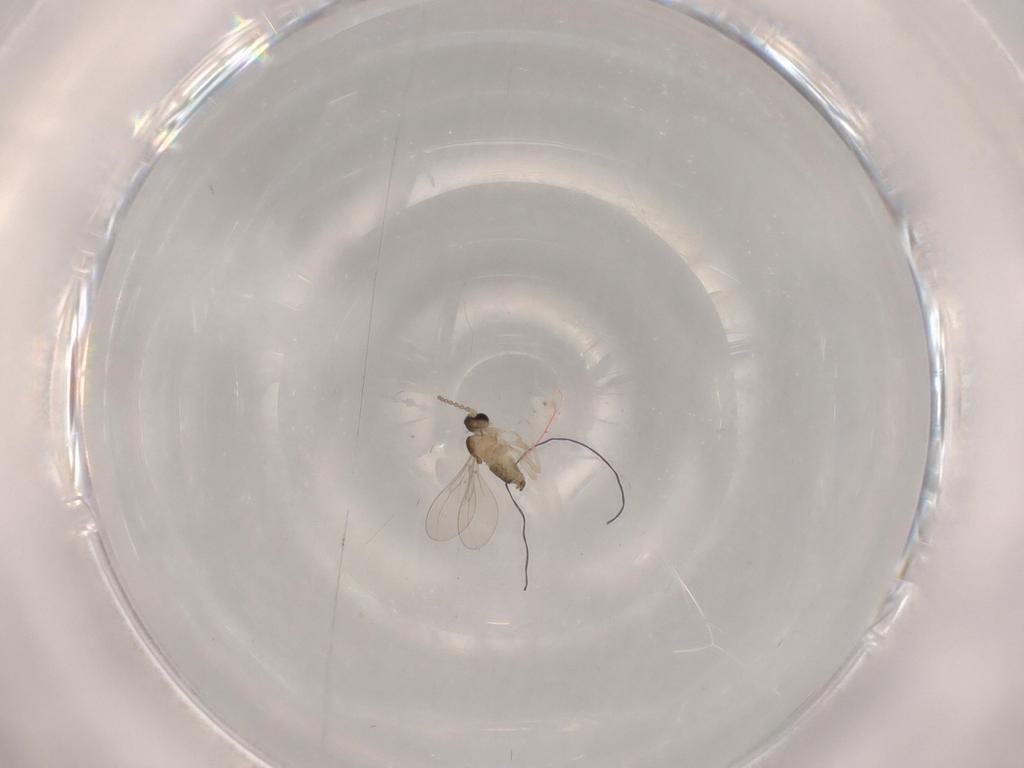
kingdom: Animalia
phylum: Arthropoda
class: Insecta
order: Diptera
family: Cecidomyiidae
